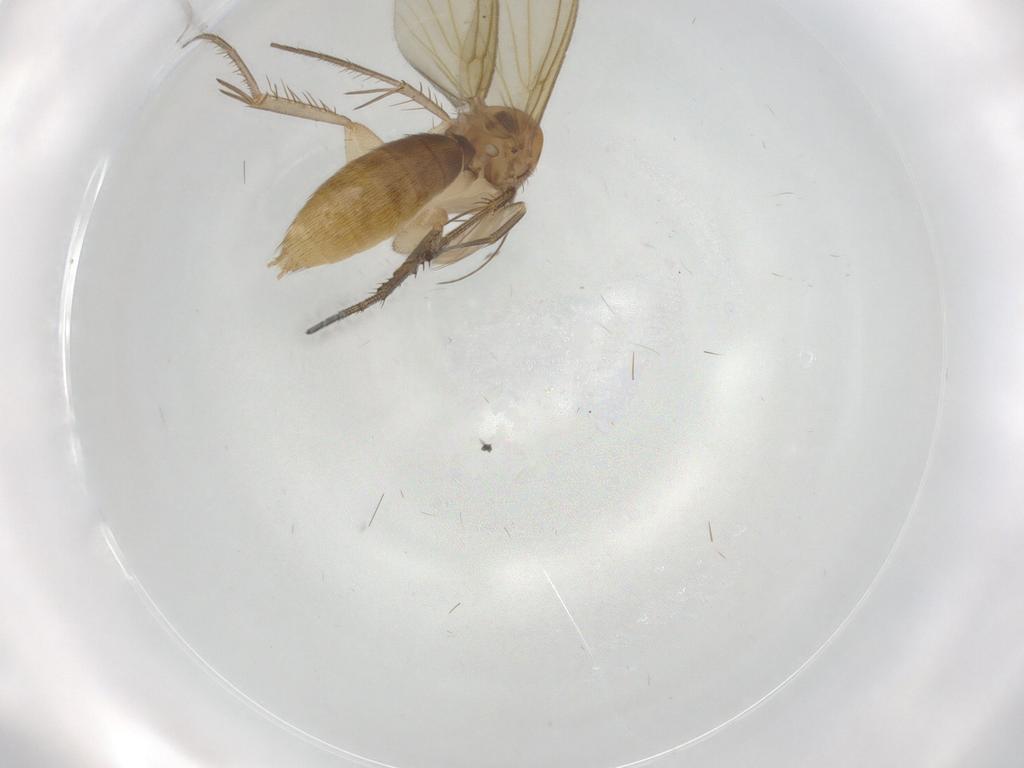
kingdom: Animalia
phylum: Arthropoda
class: Insecta
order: Diptera
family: Mycetophilidae
